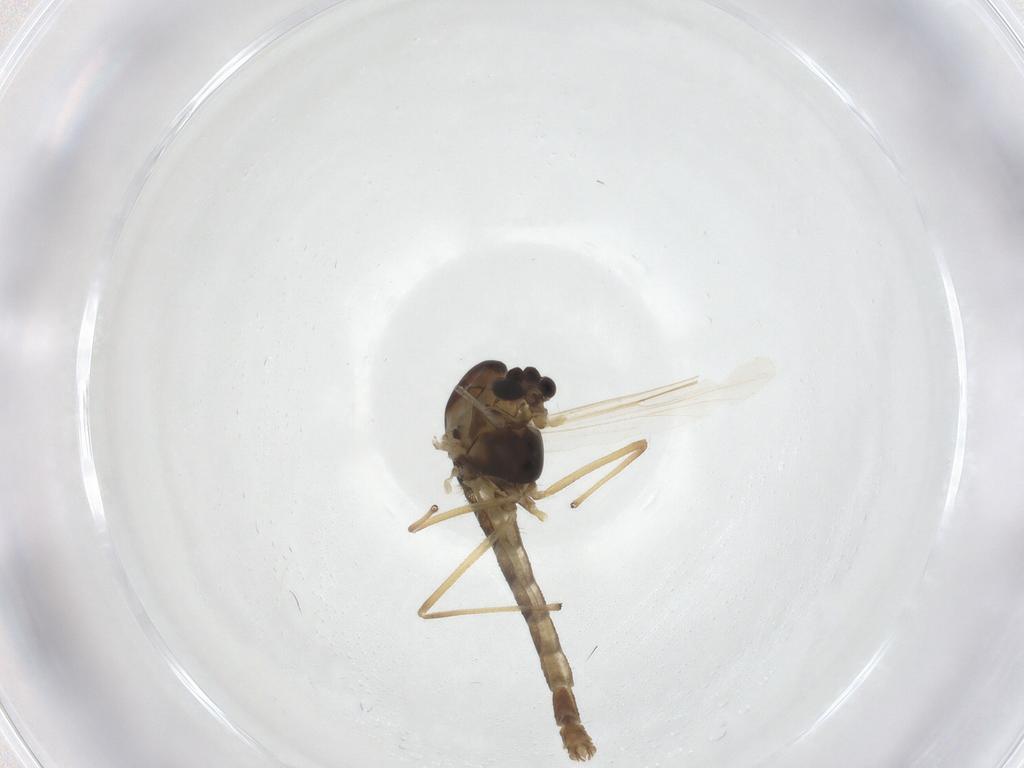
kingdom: Animalia
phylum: Arthropoda
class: Insecta
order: Diptera
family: Chironomidae
